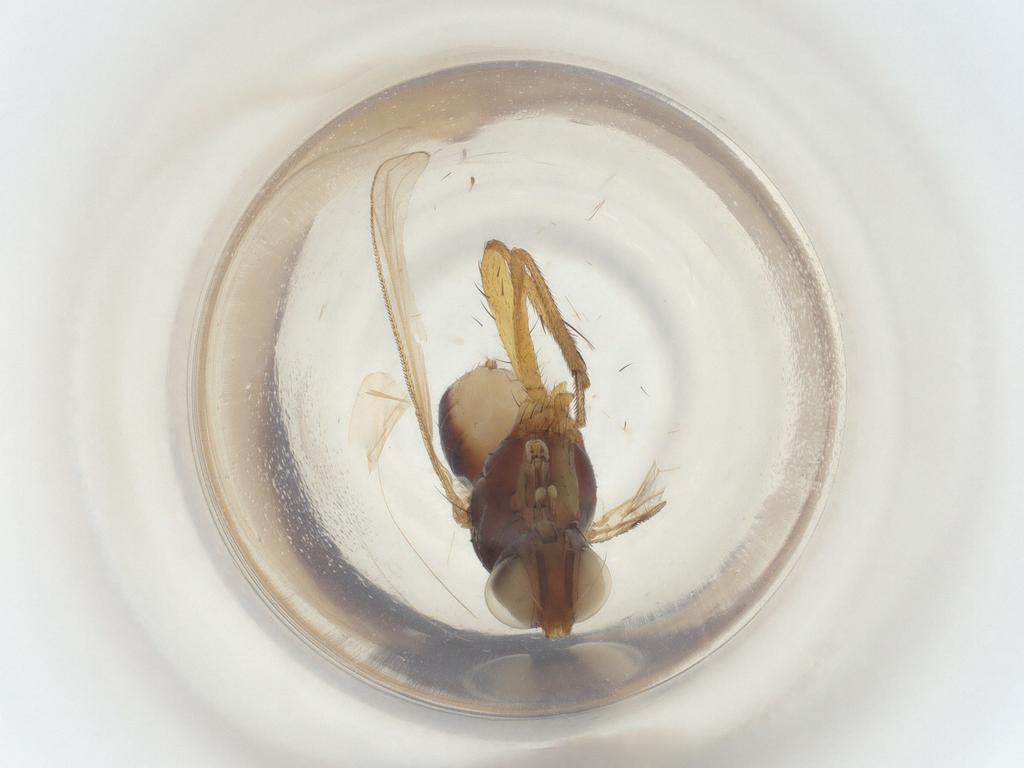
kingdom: Animalia
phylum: Arthropoda
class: Insecta
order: Diptera
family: Muscidae
